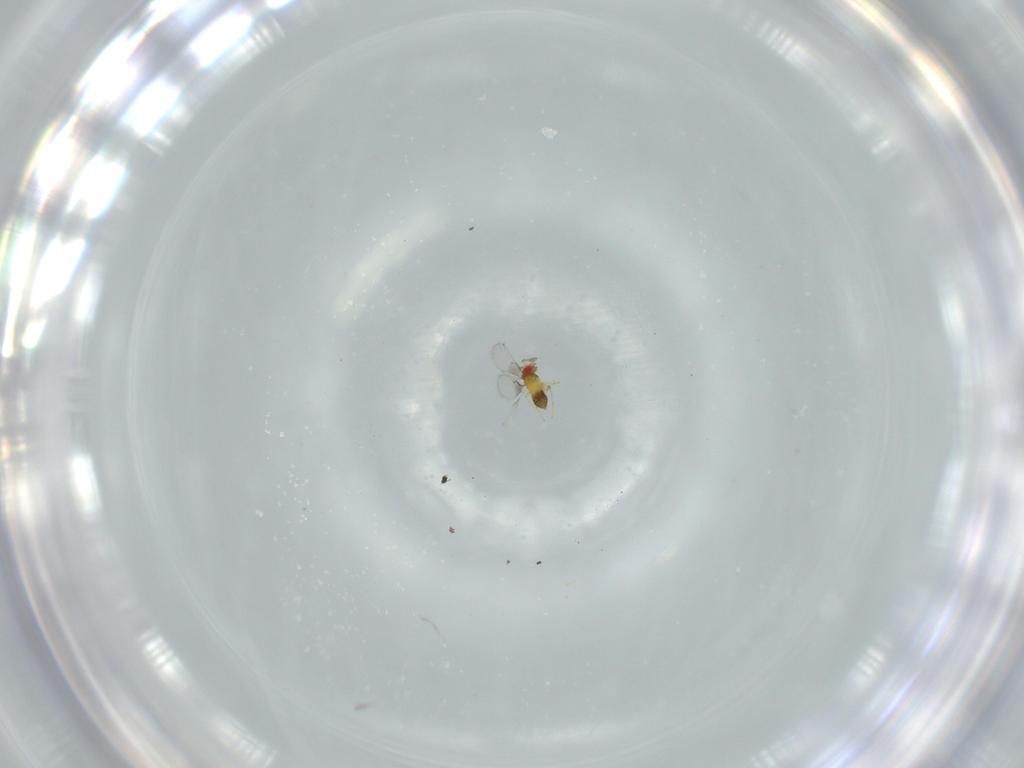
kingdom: Animalia
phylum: Arthropoda
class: Insecta
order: Hymenoptera
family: Trichogrammatidae
